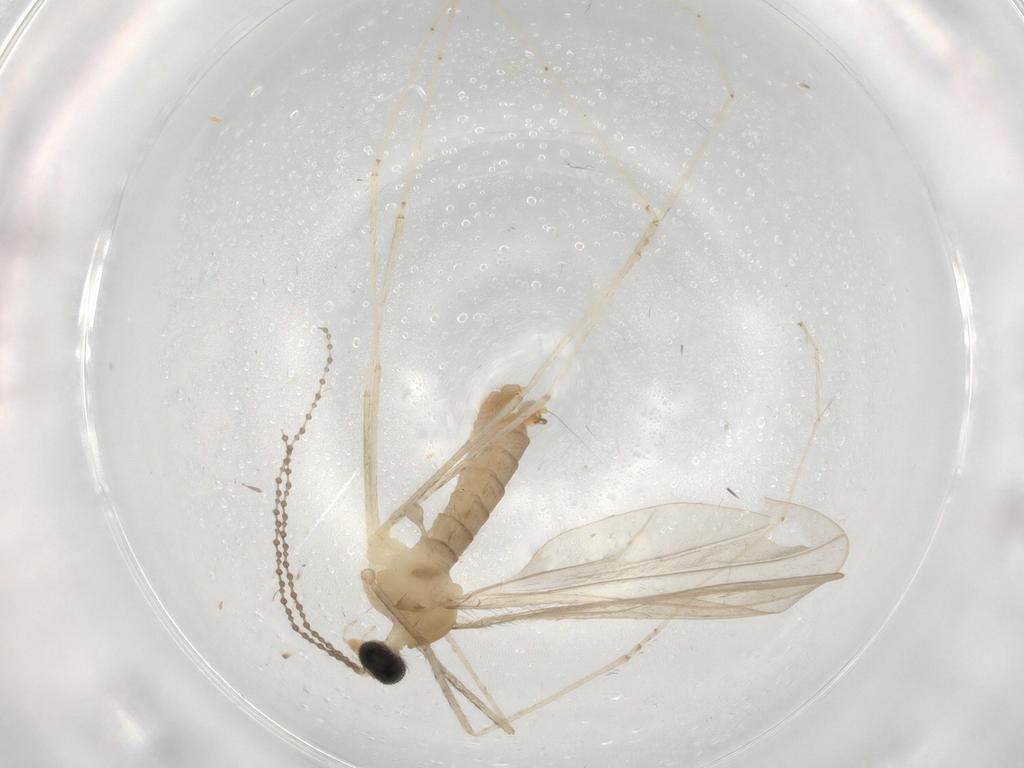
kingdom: Animalia
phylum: Arthropoda
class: Insecta
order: Diptera
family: Cecidomyiidae
